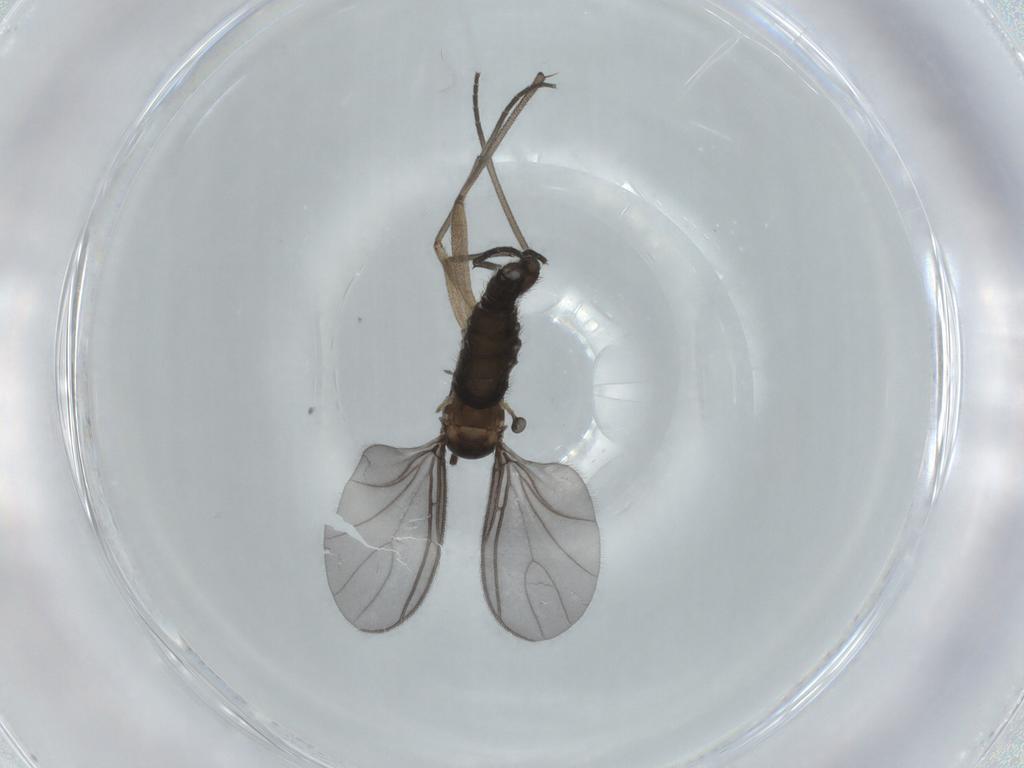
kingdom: Animalia
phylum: Arthropoda
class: Insecta
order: Diptera
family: Sciaridae
